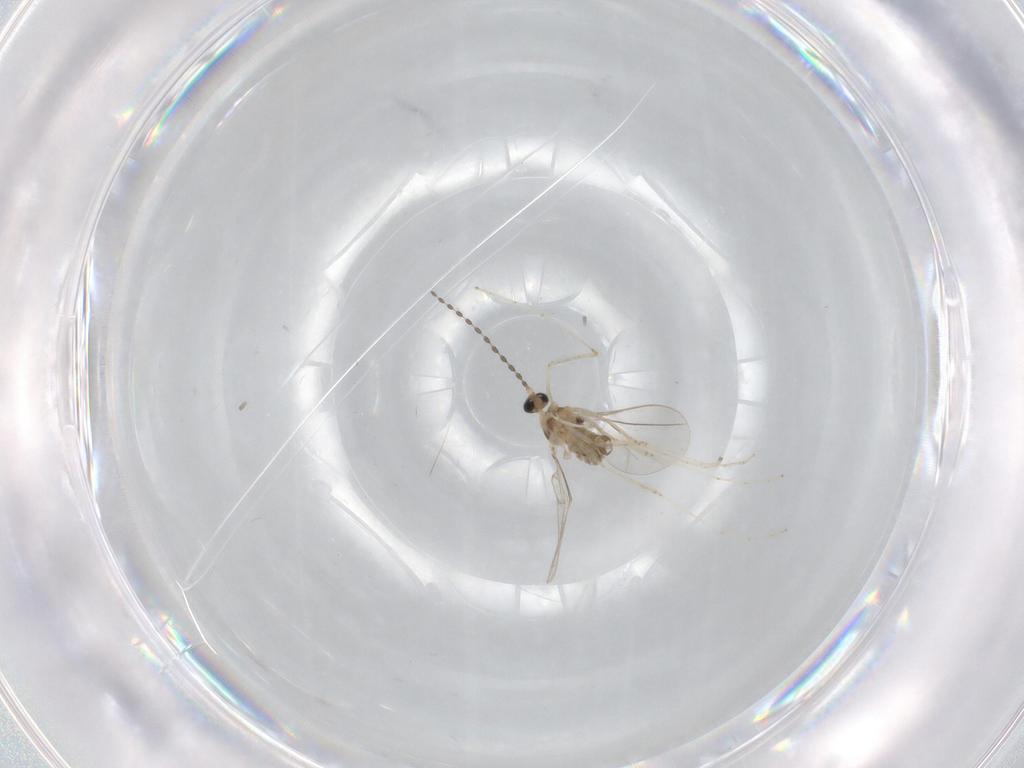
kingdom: Animalia
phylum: Arthropoda
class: Insecta
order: Diptera
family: Cecidomyiidae
